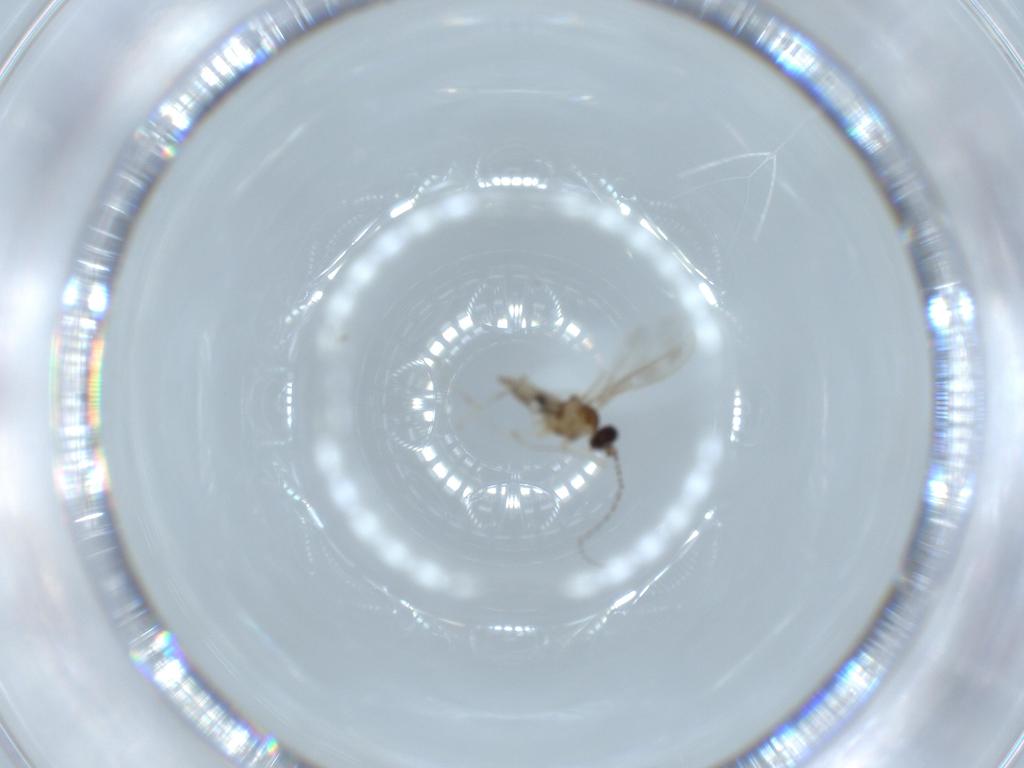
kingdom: Animalia
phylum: Arthropoda
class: Insecta
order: Diptera
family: Cecidomyiidae
